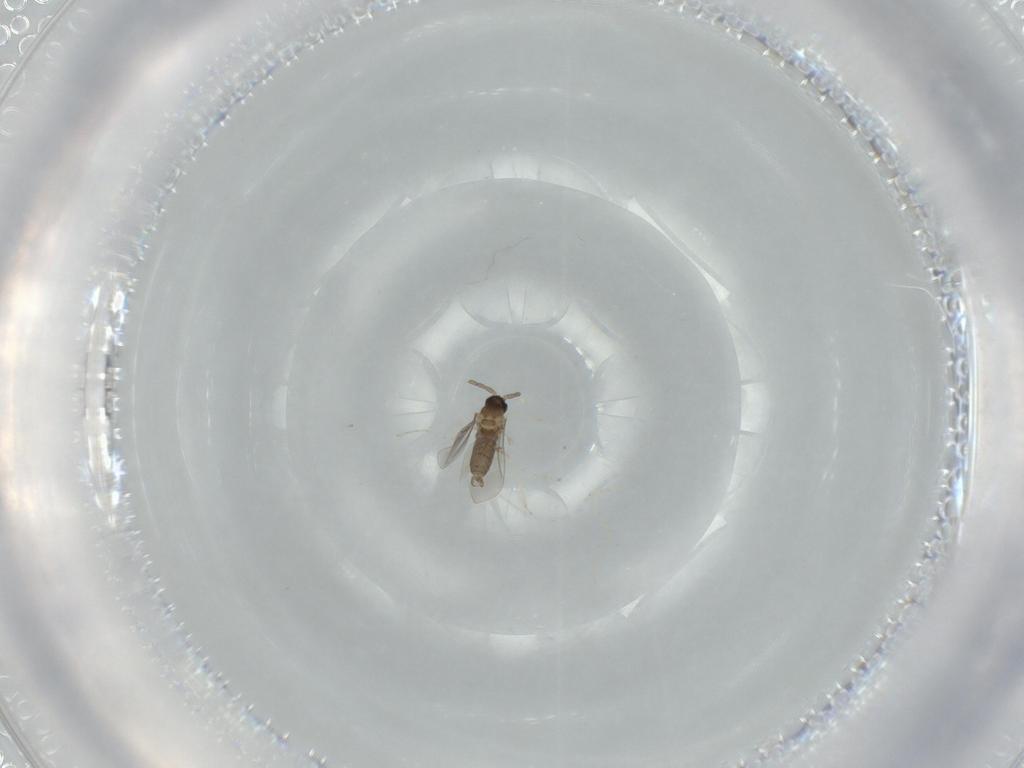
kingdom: Animalia
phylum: Arthropoda
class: Insecta
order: Diptera
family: Cecidomyiidae
